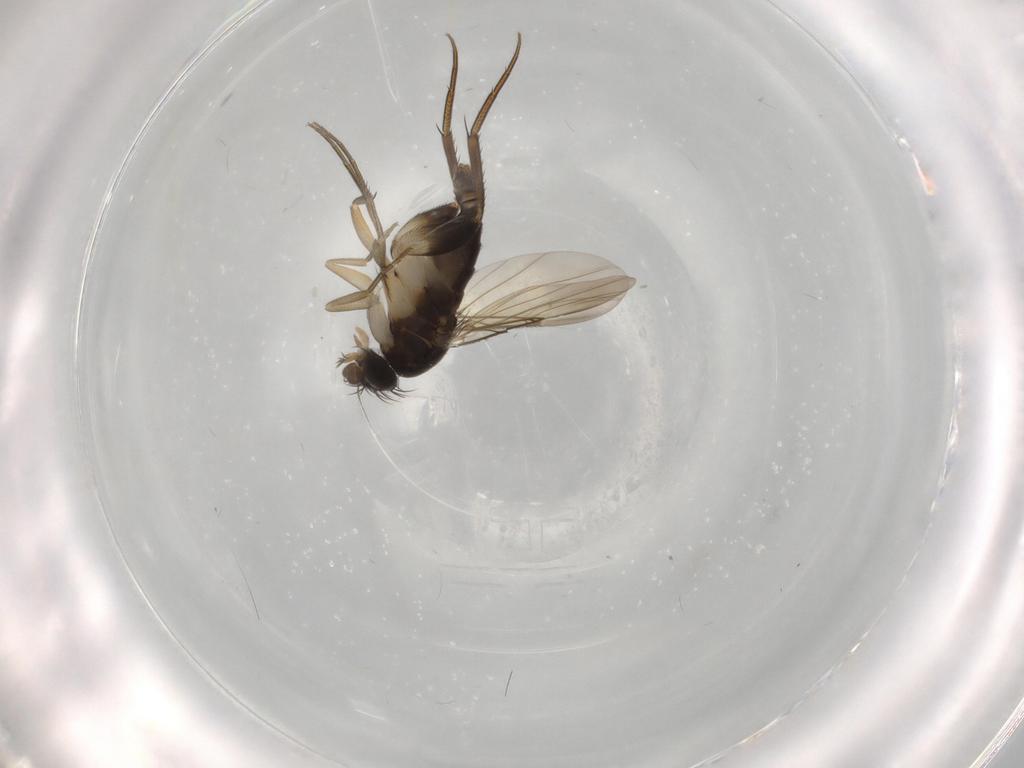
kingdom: Animalia
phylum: Arthropoda
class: Insecta
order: Diptera
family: Phoridae
